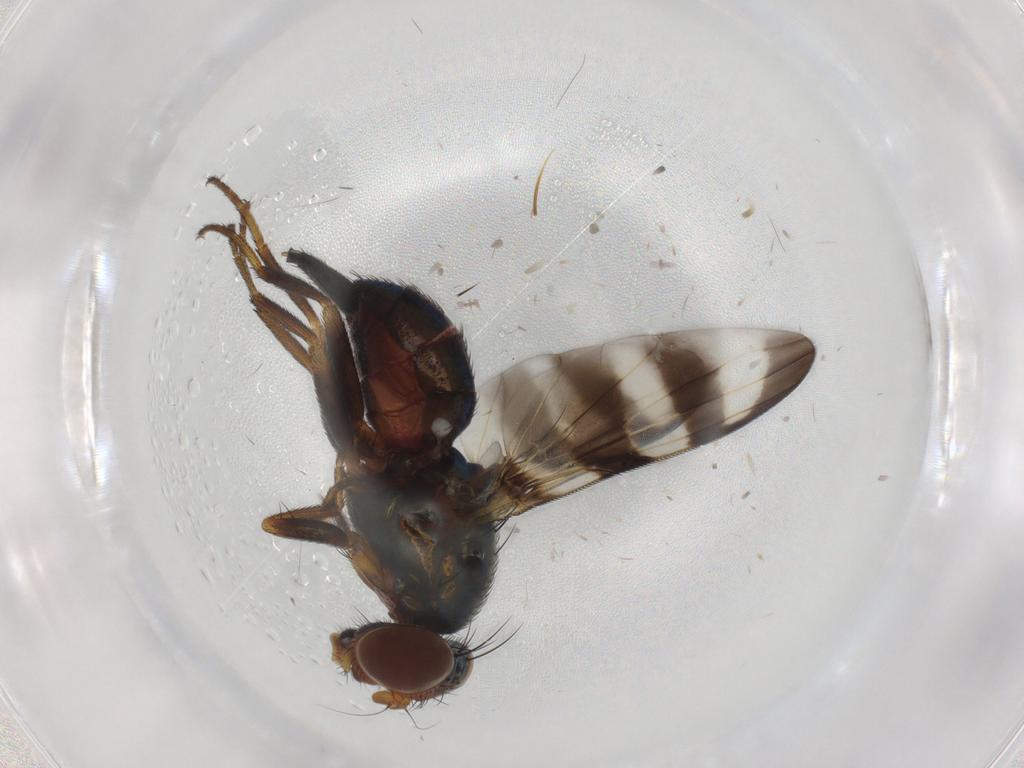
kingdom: Animalia
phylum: Arthropoda
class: Insecta
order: Diptera
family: Ulidiidae
